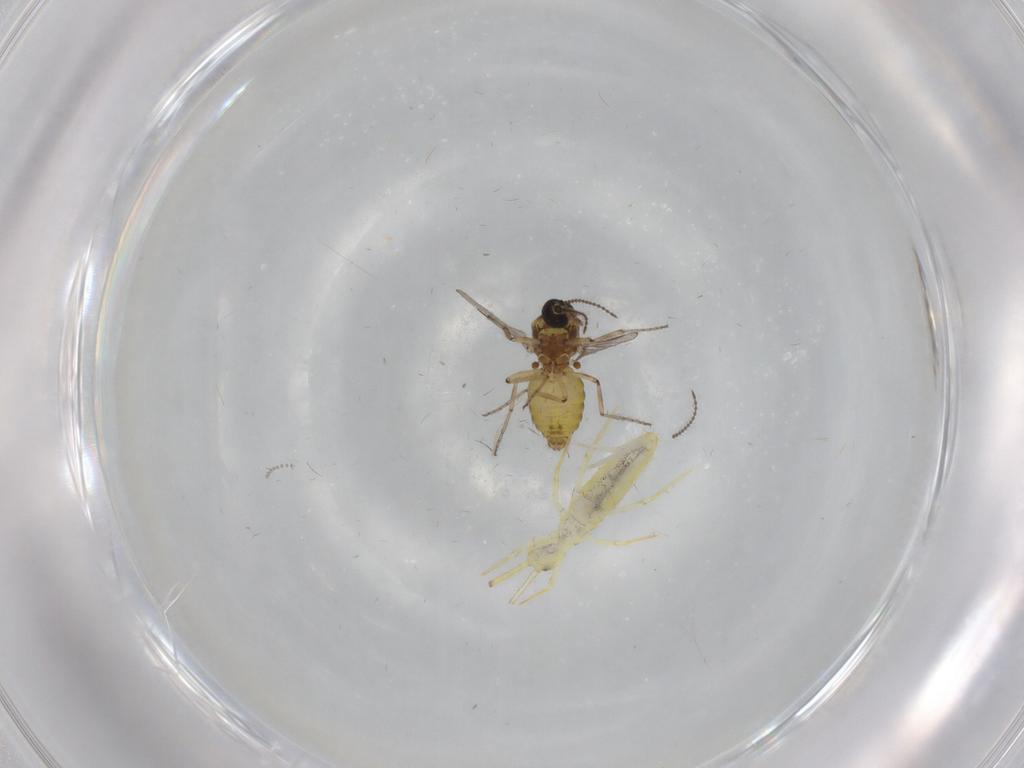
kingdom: Animalia
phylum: Arthropoda
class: Insecta
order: Diptera
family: Ceratopogonidae
